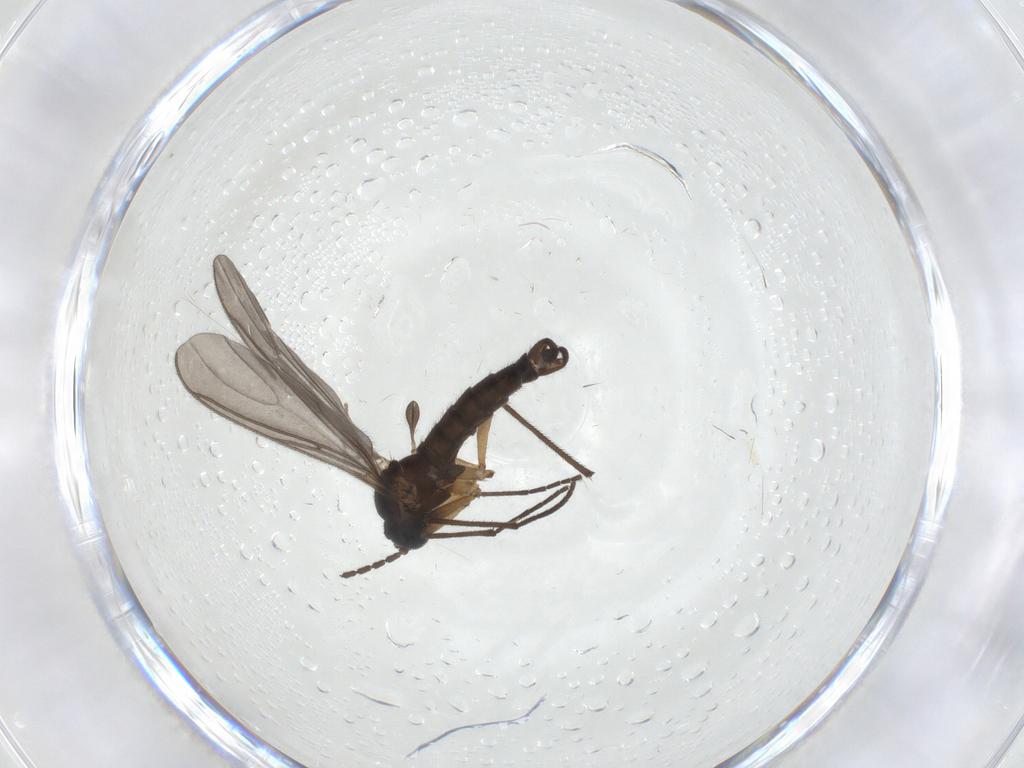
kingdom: Animalia
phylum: Arthropoda
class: Insecta
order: Diptera
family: Sciaridae
